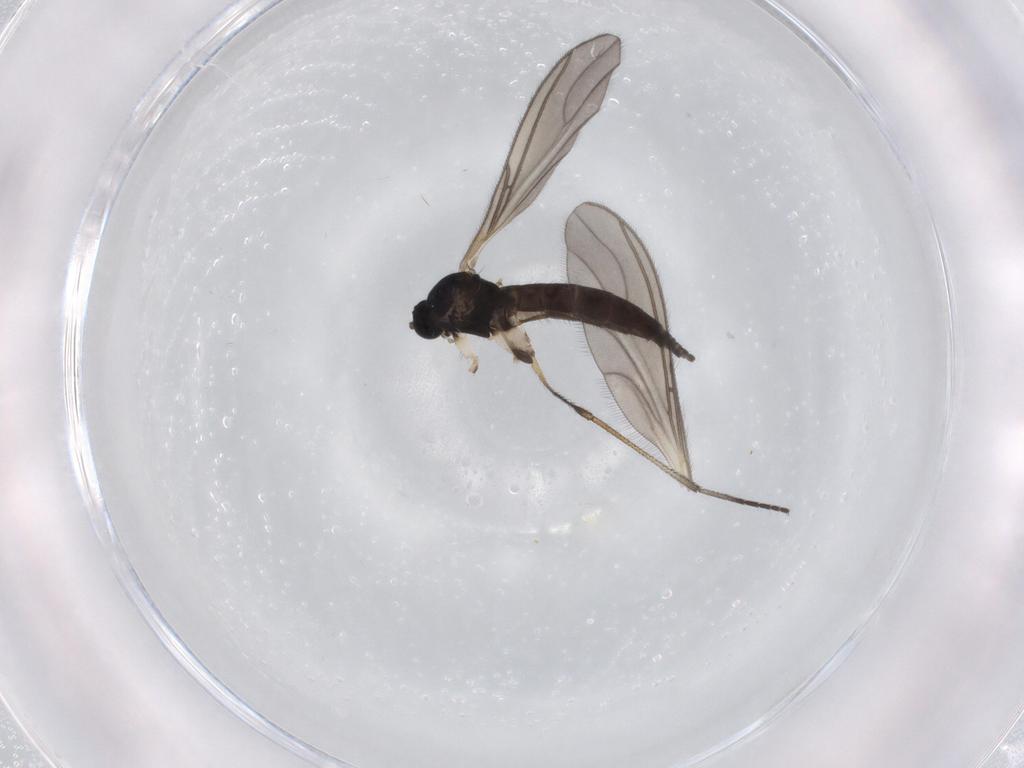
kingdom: Animalia
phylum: Arthropoda
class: Insecta
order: Diptera
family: Sciaridae
